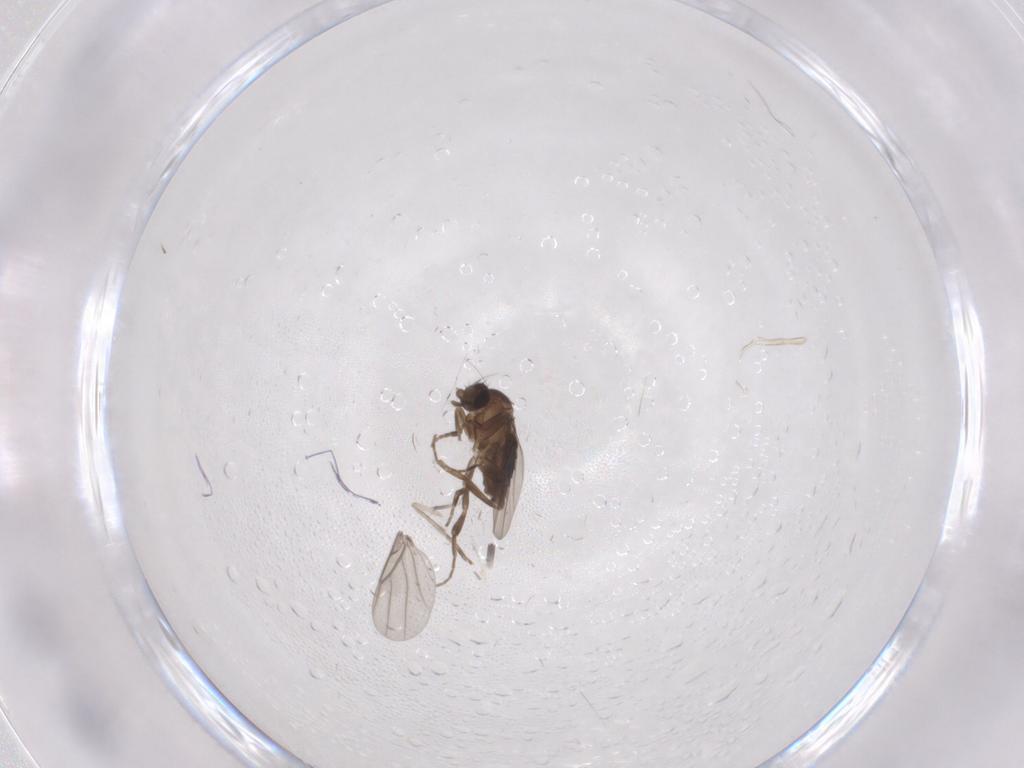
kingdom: Animalia
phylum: Arthropoda
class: Insecta
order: Diptera
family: Phoridae
